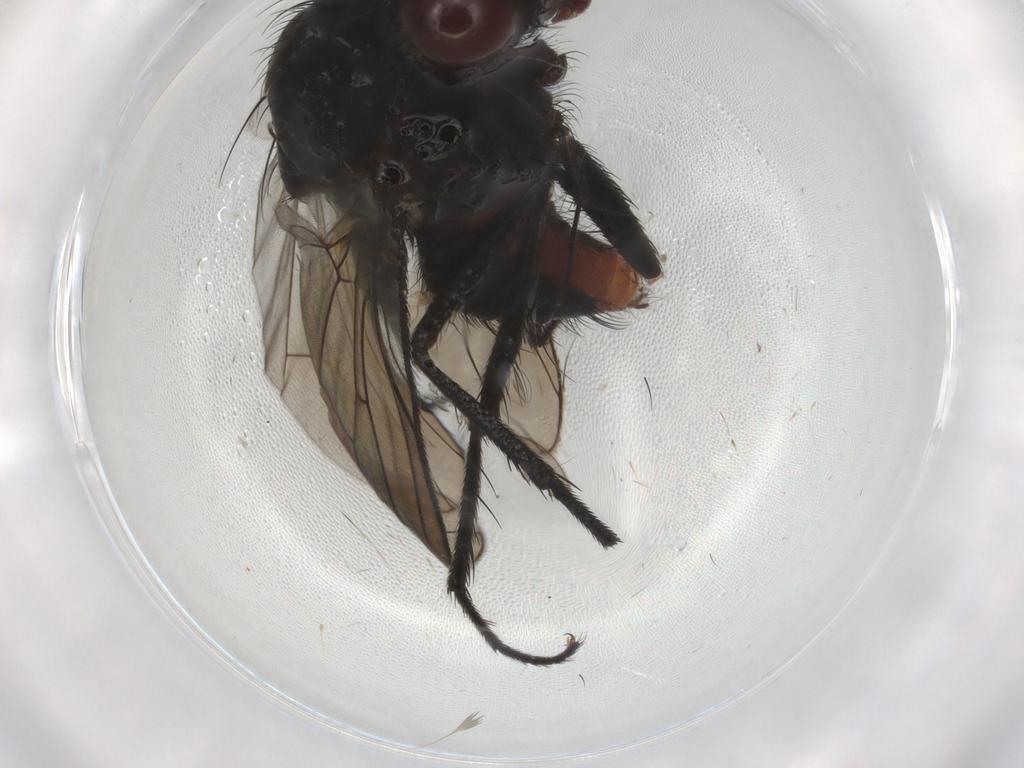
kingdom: Animalia
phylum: Arthropoda
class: Insecta
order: Diptera
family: Anthomyiidae
